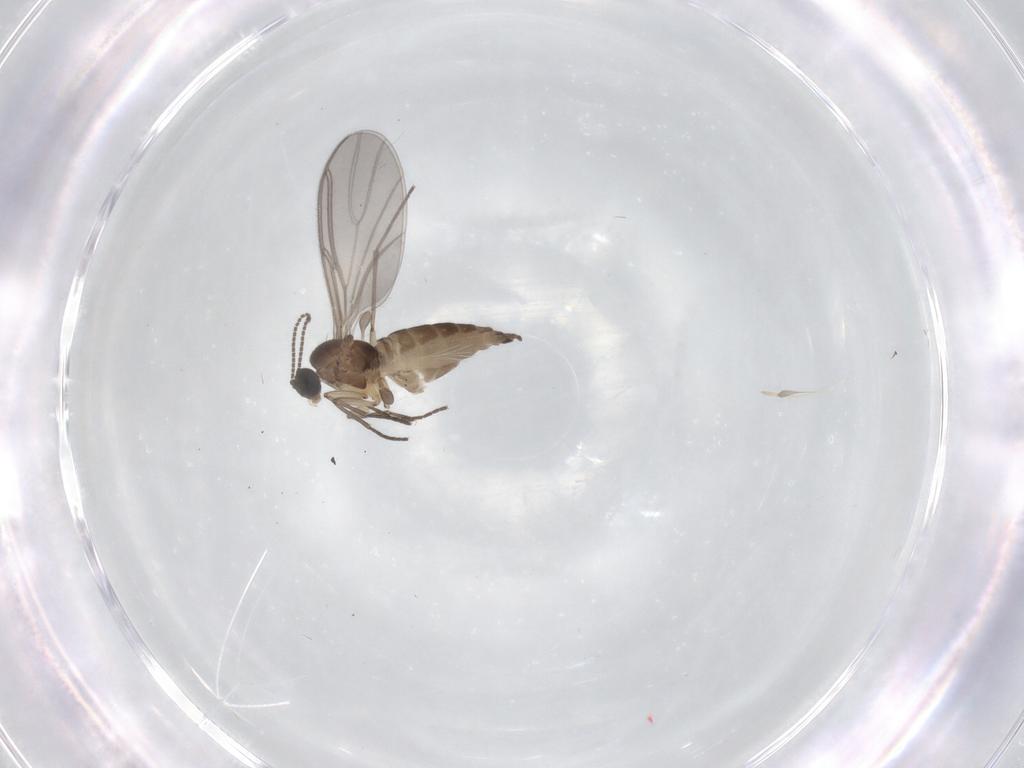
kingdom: Animalia
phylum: Arthropoda
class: Insecta
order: Diptera
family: Sciaridae
